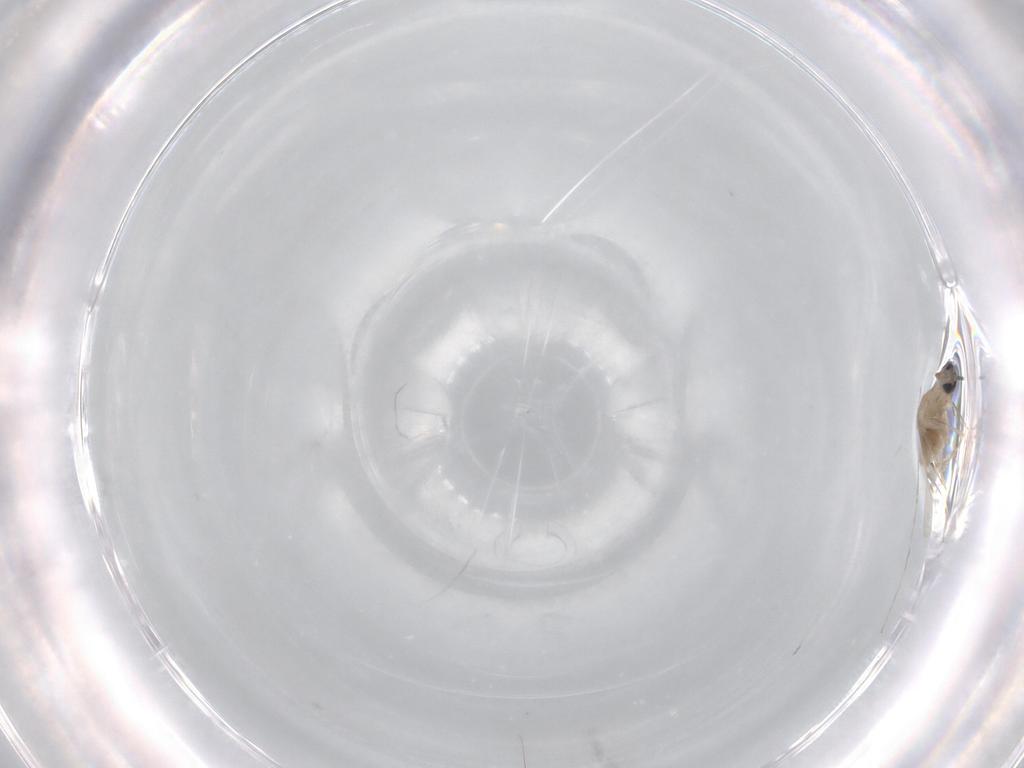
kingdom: Animalia
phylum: Arthropoda
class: Insecta
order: Diptera
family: Cecidomyiidae
